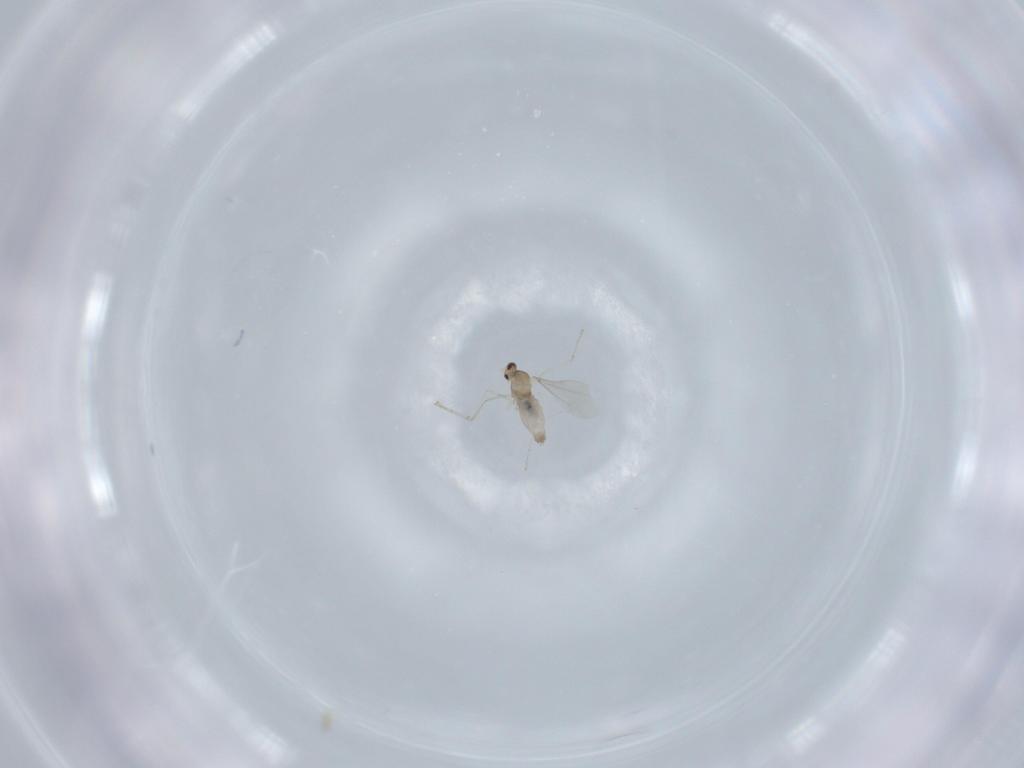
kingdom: Animalia
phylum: Arthropoda
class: Insecta
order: Diptera
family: Cecidomyiidae
